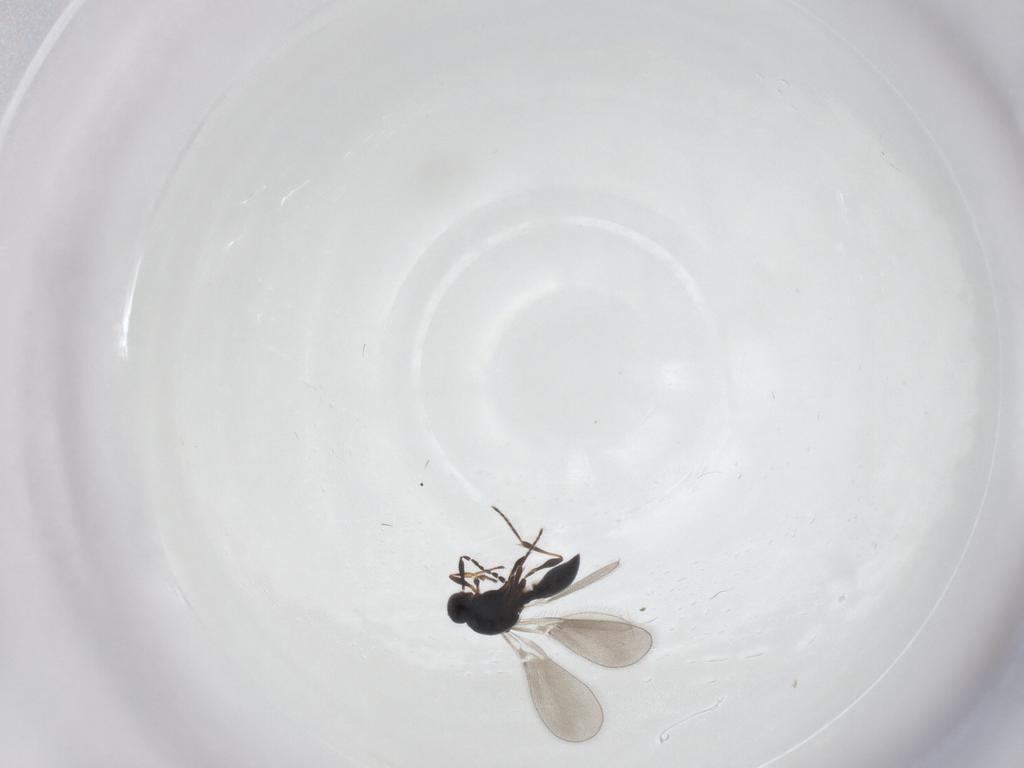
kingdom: Animalia
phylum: Arthropoda
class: Insecta
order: Hymenoptera
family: Platygastridae
